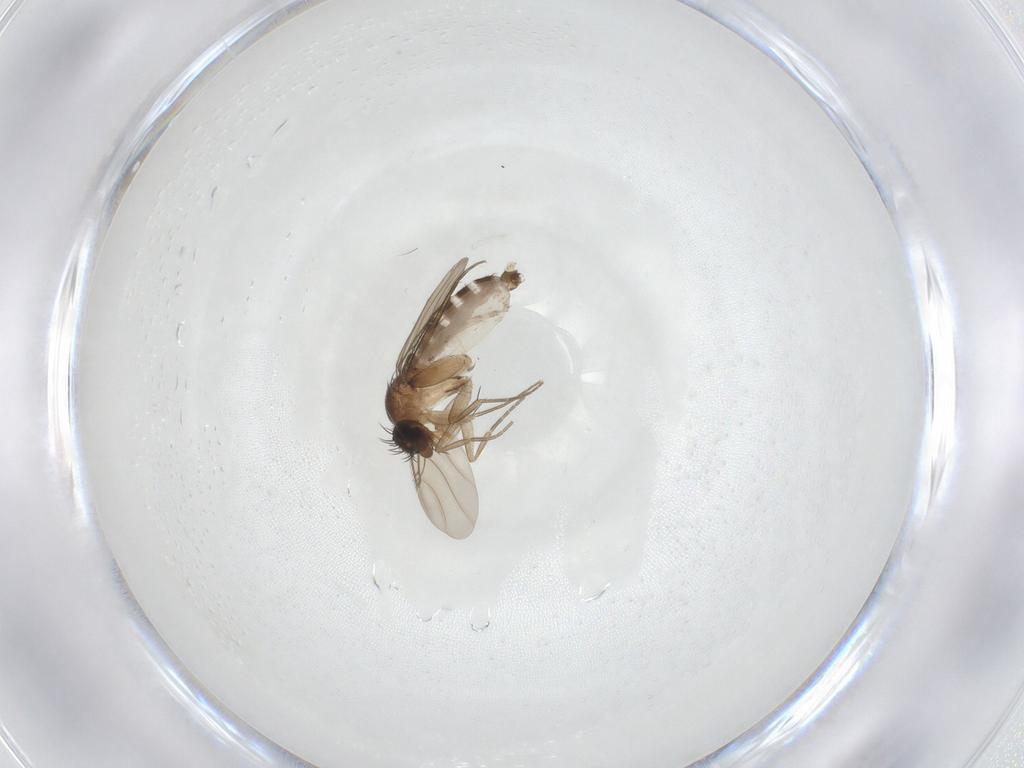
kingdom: Animalia
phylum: Arthropoda
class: Insecta
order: Diptera
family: Phoridae
